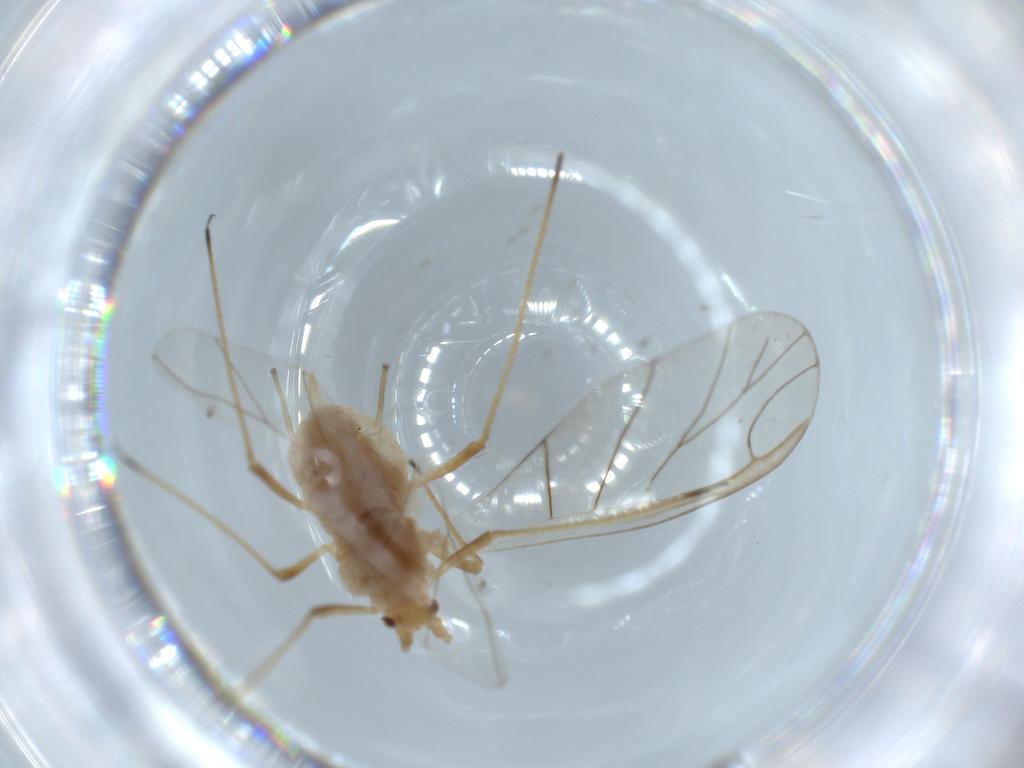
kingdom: Animalia
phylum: Arthropoda
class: Insecta
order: Hemiptera
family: Aphididae
